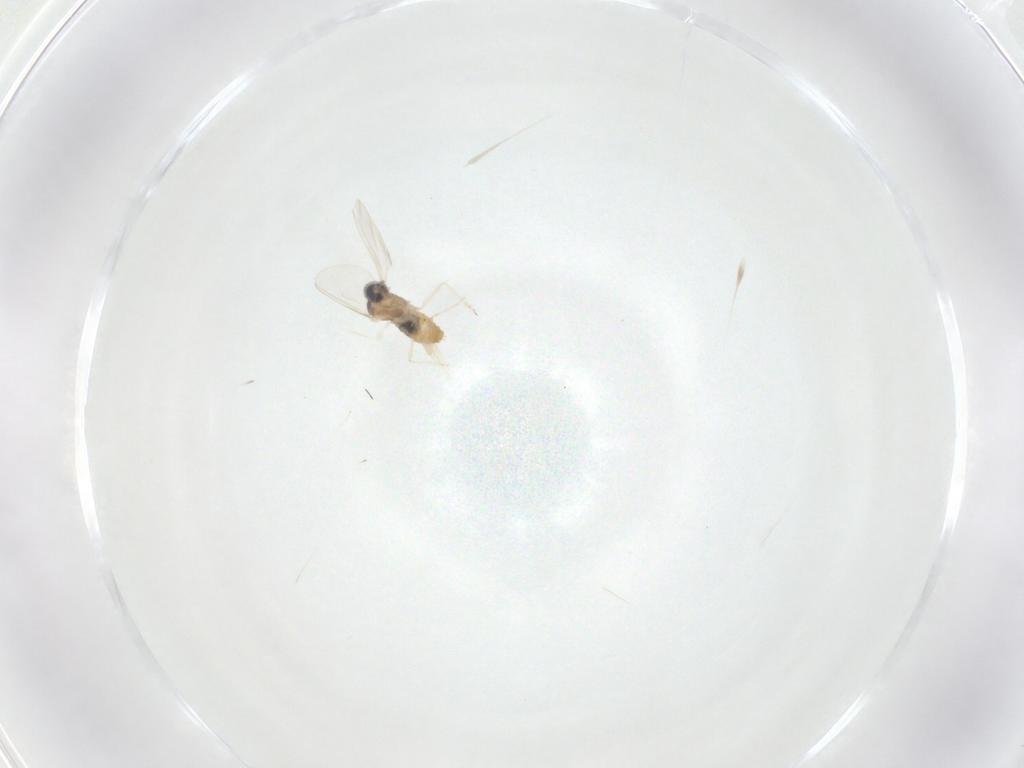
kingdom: Animalia
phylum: Arthropoda
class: Insecta
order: Diptera
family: Cecidomyiidae
